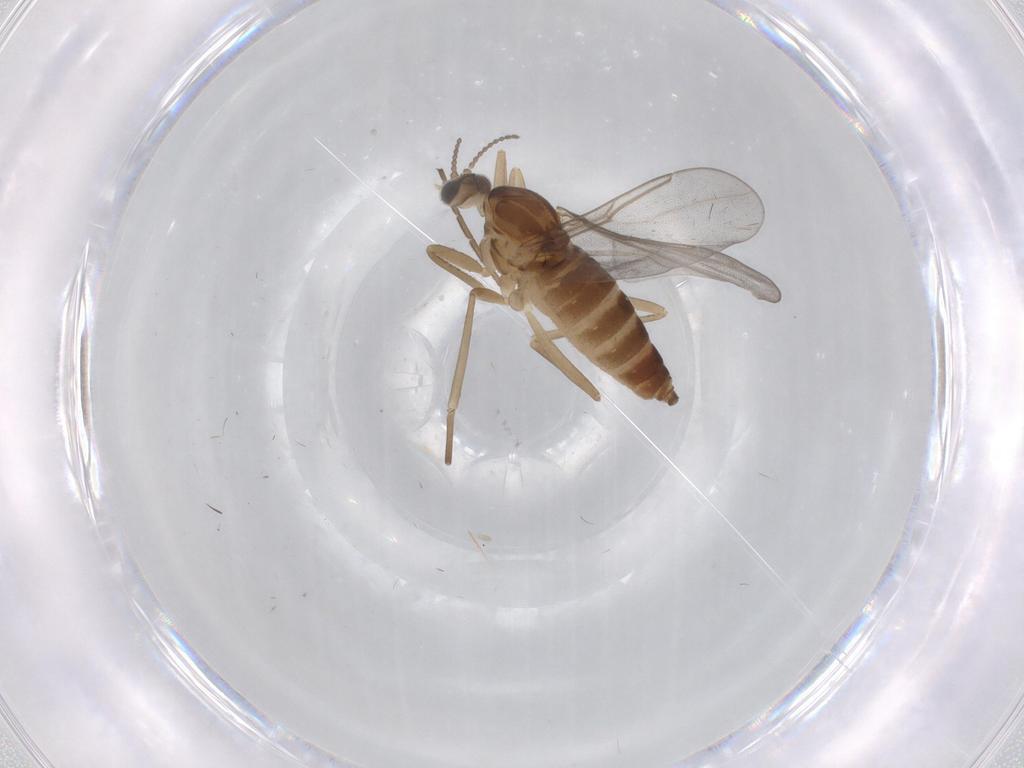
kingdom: Animalia
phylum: Arthropoda
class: Insecta
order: Diptera
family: Cecidomyiidae
